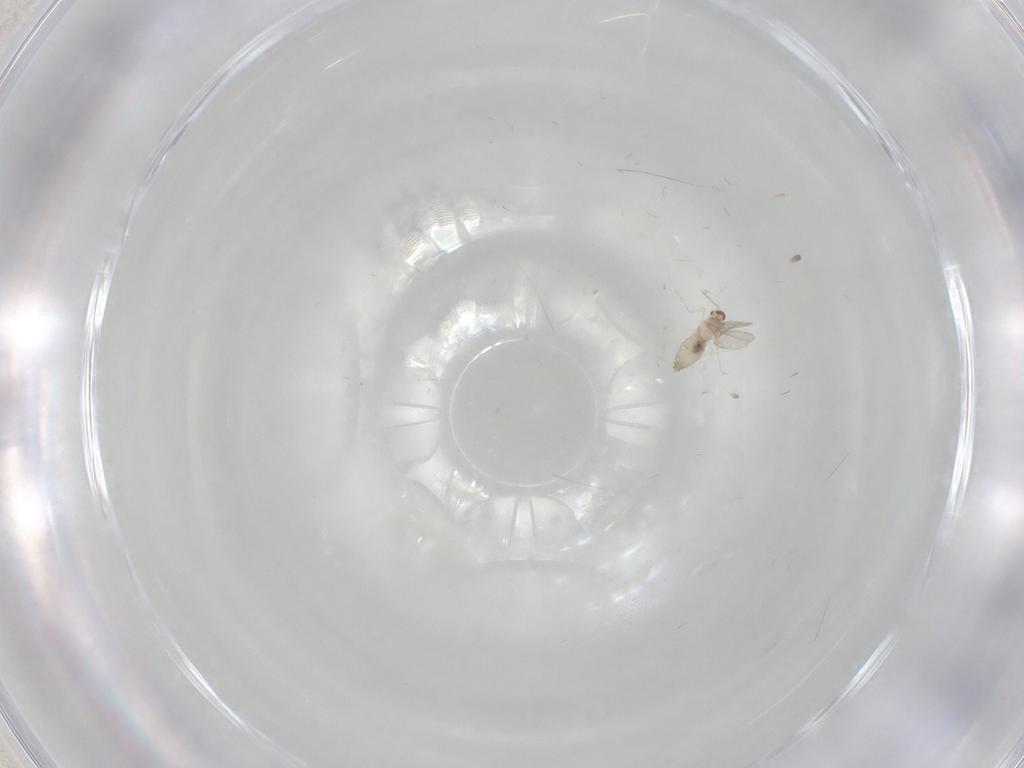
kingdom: Animalia
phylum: Arthropoda
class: Insecta
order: Diptera
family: Cecidomyiidae
